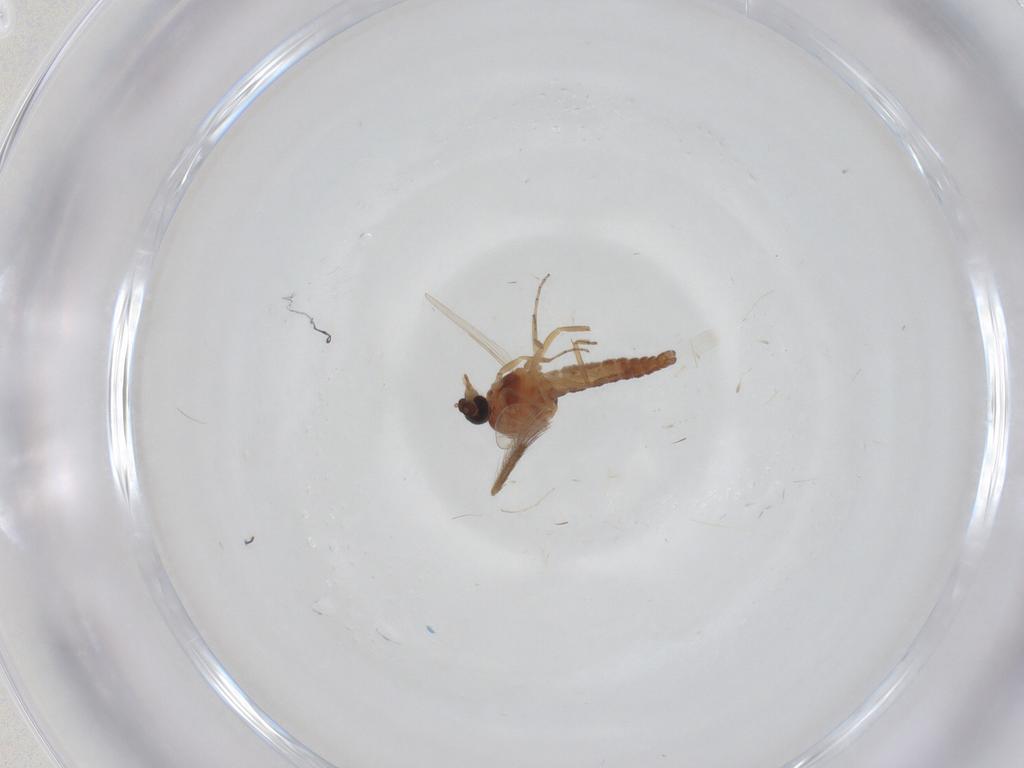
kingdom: Animalia
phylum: Arthropoda
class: Insecta
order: Diptera
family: Ceratopogonidae
